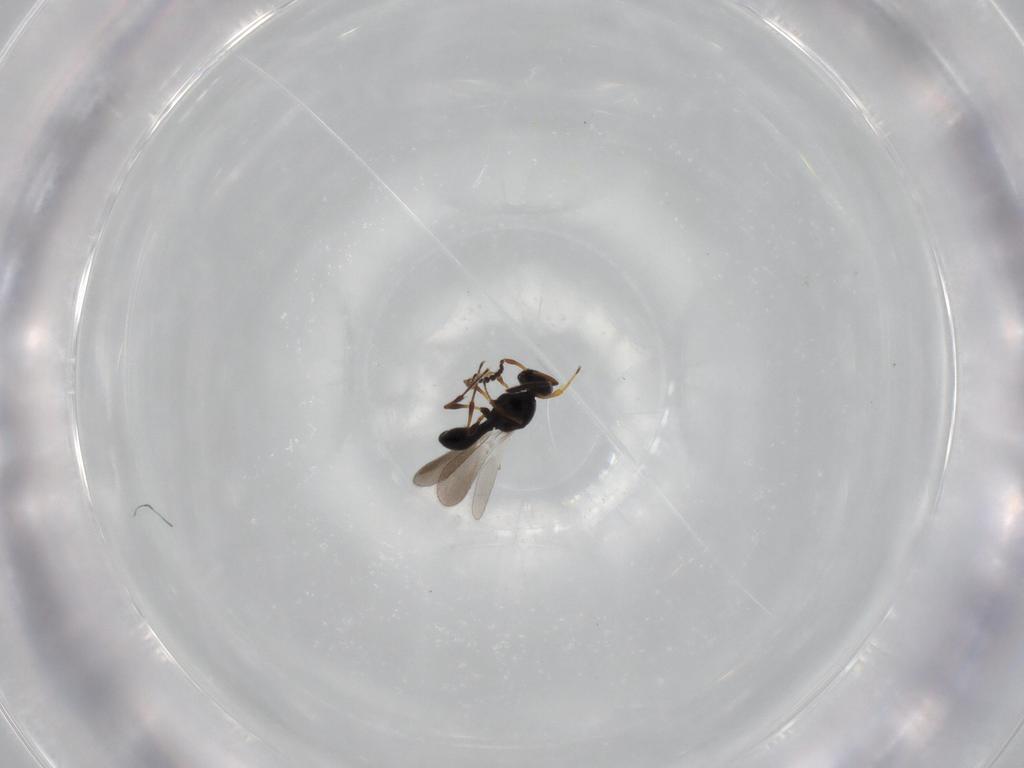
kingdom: Animalia
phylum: Arthropoda
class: Insecta
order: Hymenoptera
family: Platygastridae
